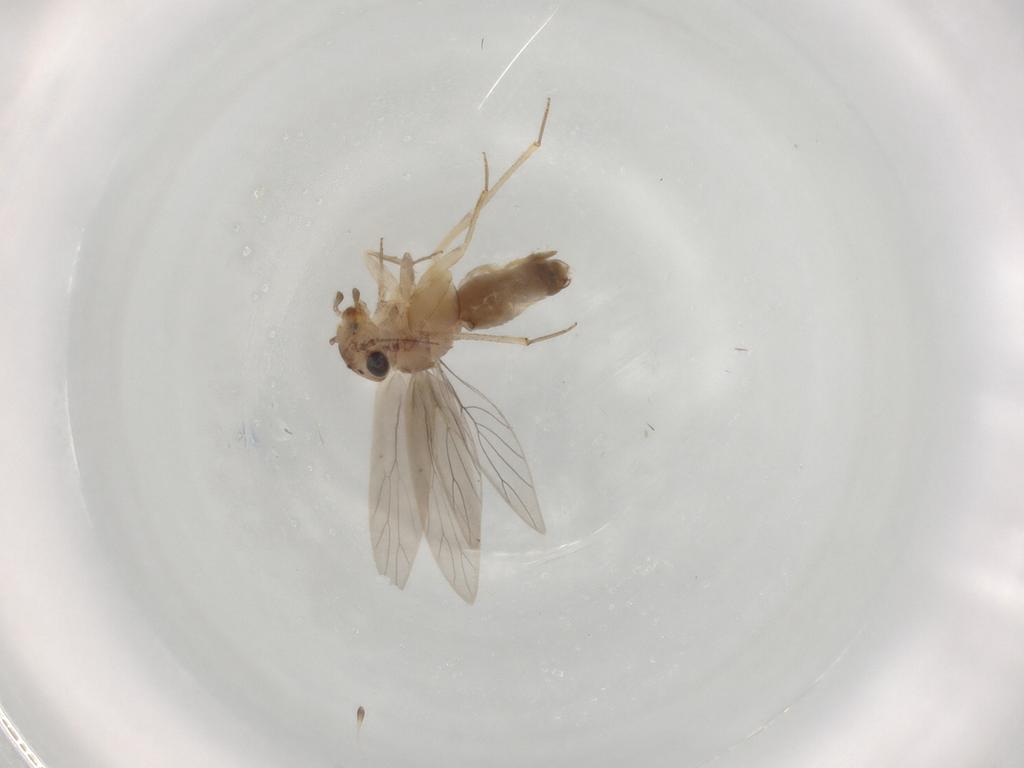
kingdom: Animalia
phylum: Arthropoda
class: Insecta
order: Psocodea
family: Lepidopsocidae
